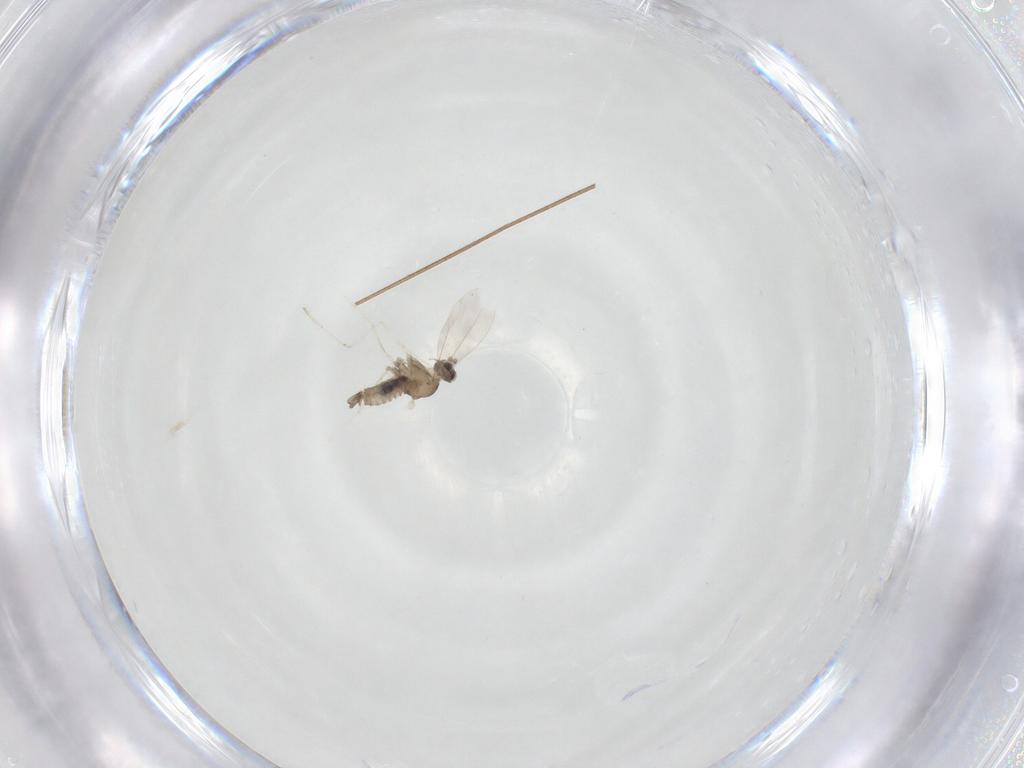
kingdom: Animalia
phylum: Arthropoda
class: Insecta
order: Diptera
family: Cecidomyiidae
